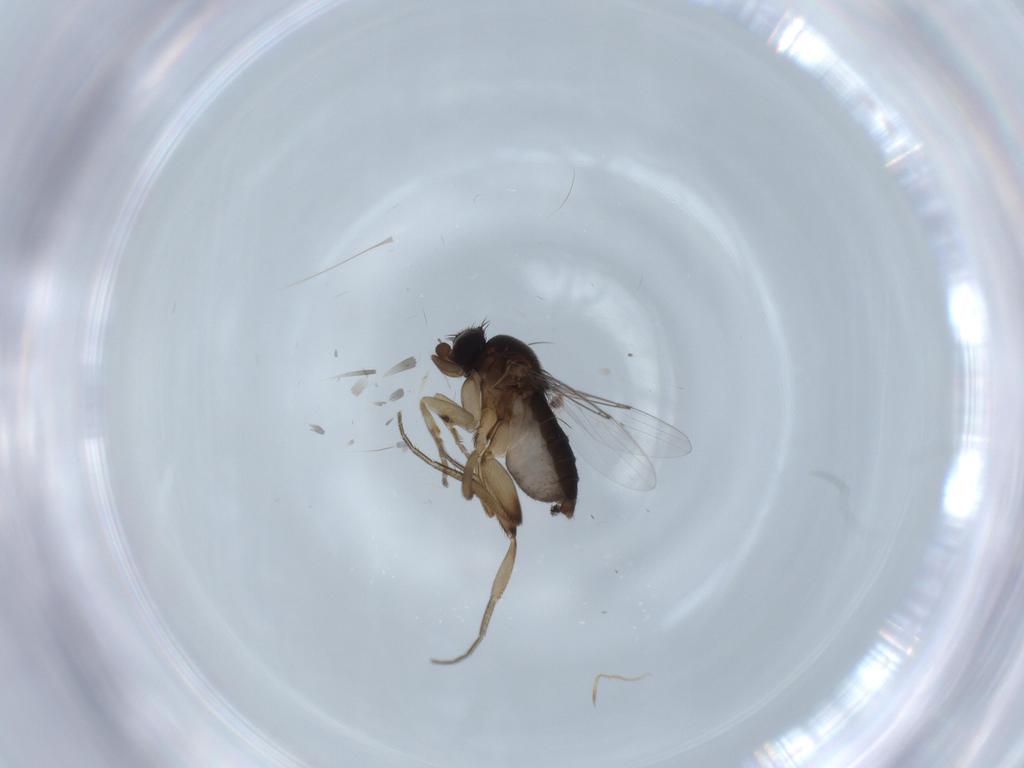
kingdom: Animalia
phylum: Arthropoda
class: Insecta
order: Diptera
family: Phoridae
